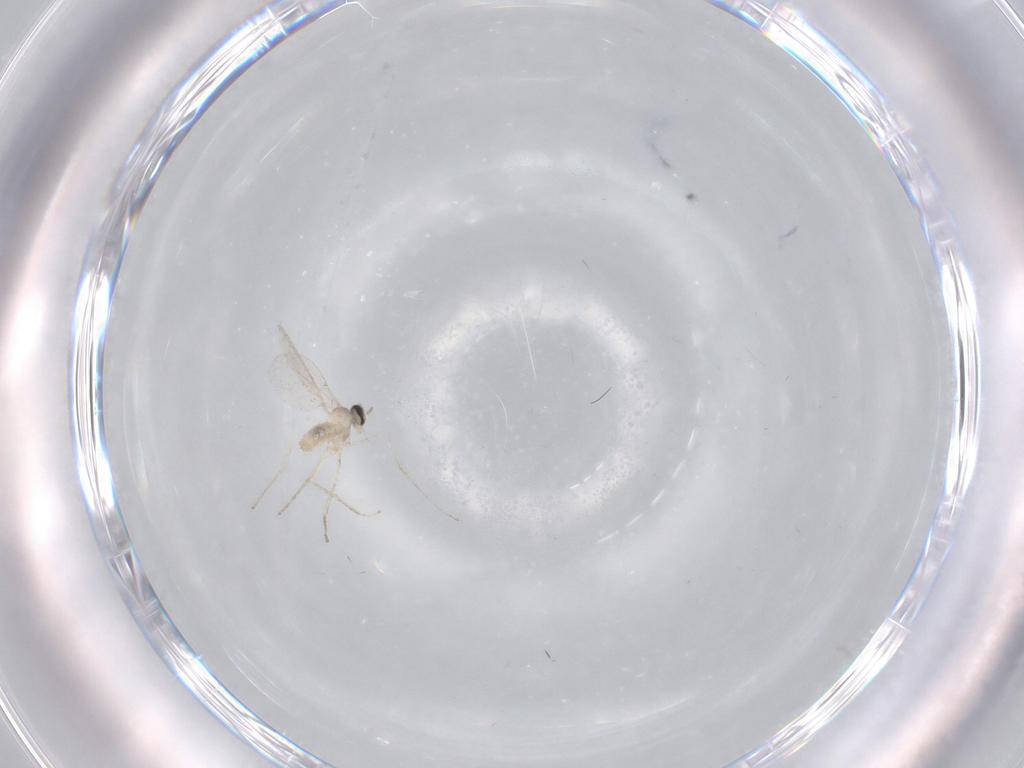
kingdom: Animalia
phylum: Arthropoda
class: Insecta
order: Diptera
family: Cecidomyiidae
